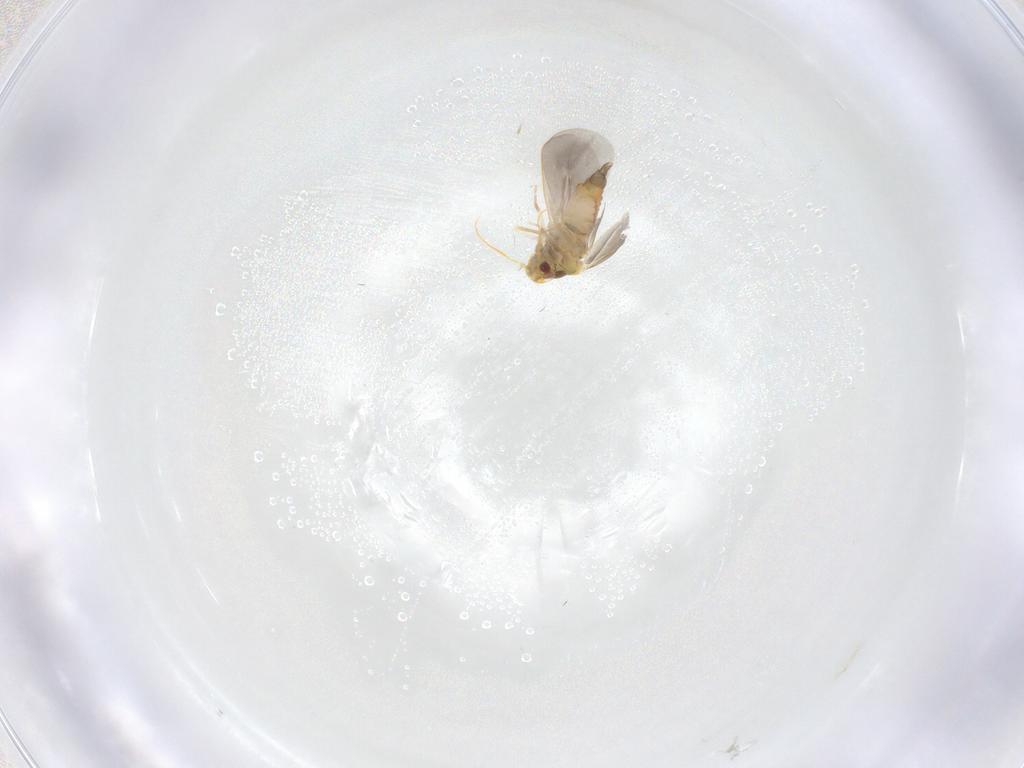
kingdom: Animalia
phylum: Arthropoda
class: Insecta
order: Hemiptera
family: Aleyrodidae
